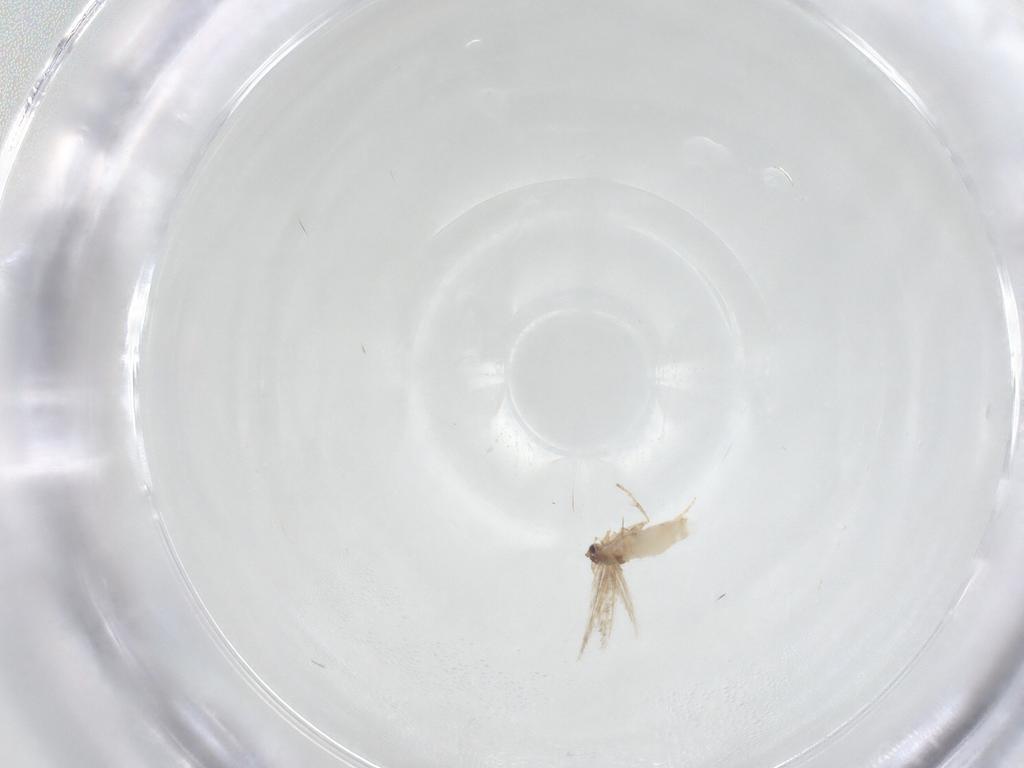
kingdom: Animalia
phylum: Arthropoda
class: Insecta
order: Lepidoptera
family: Nepticulidae
